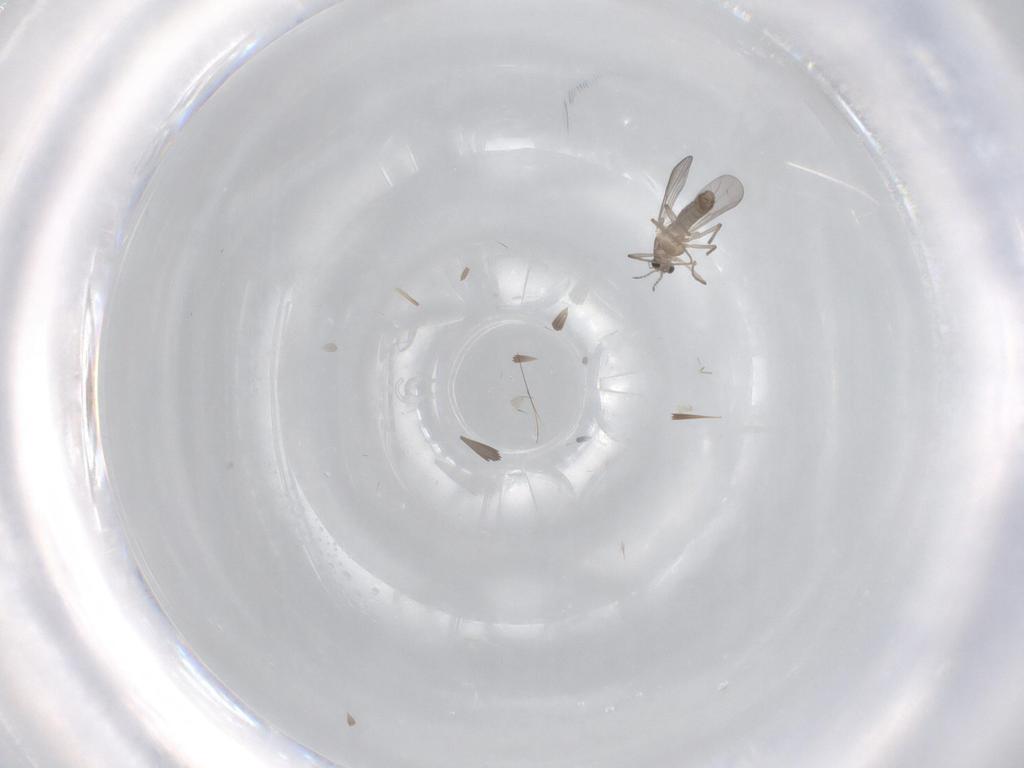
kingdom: Animalia
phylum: Arthropoda
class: Insecta
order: Diptera
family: Chironomidae
